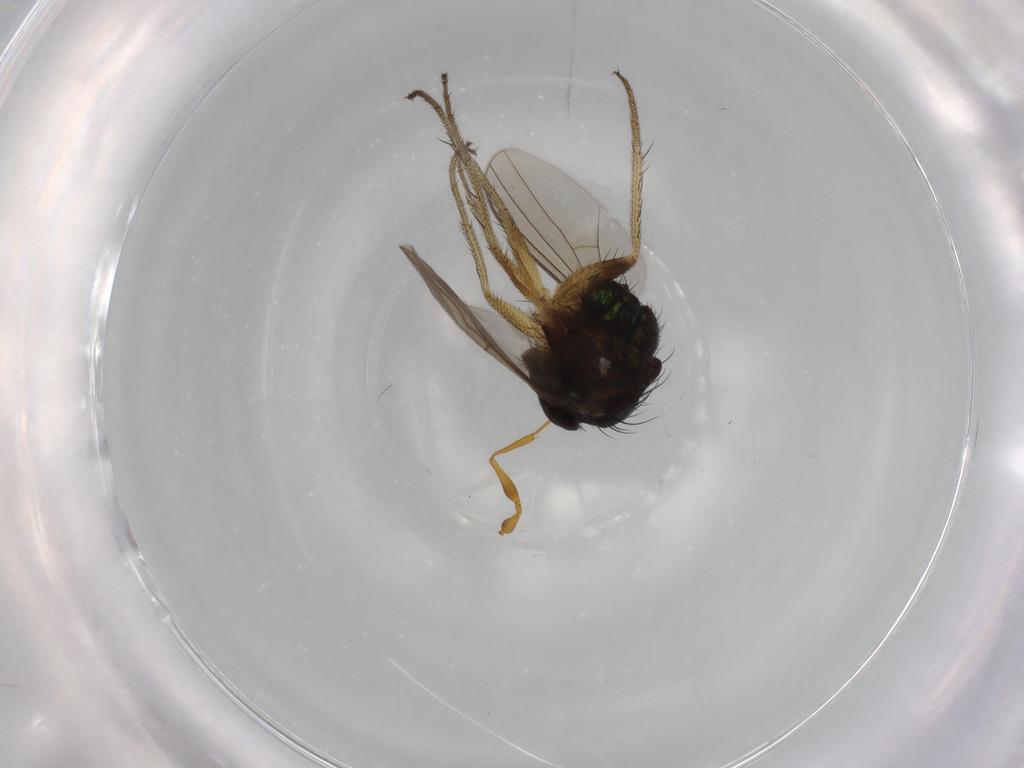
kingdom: Animalia
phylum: Arthropoda
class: Insecta
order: Diptera
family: Dolichopodidae
